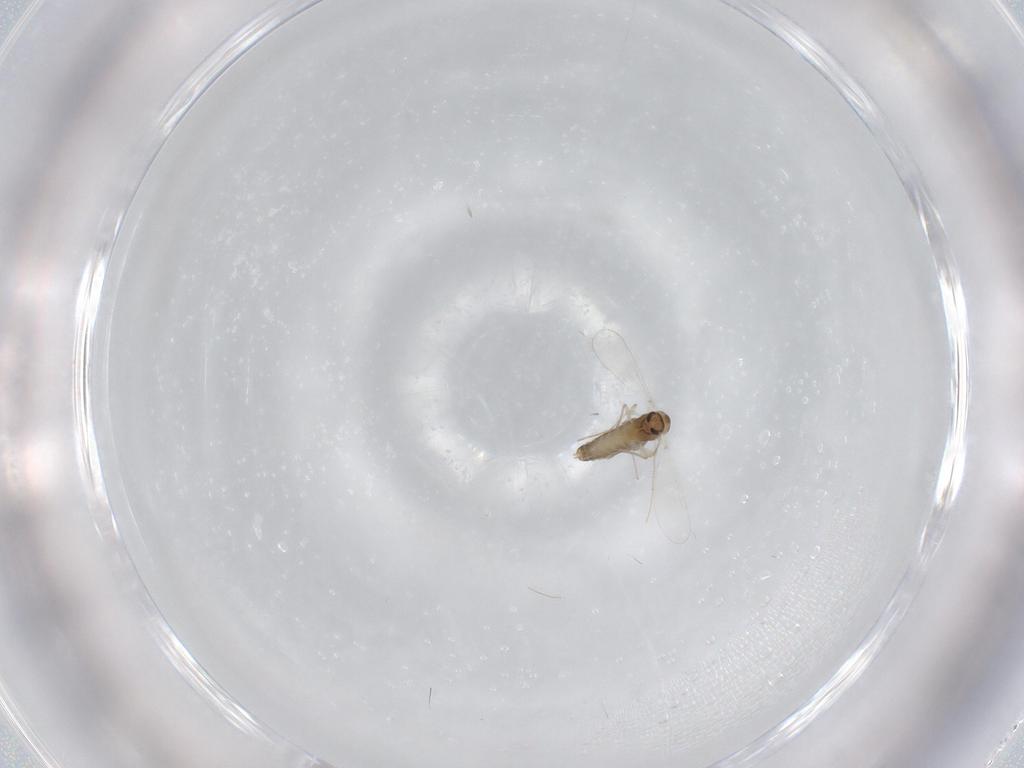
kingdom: Animalia
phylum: Arthropoda
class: Insecta
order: Diptera
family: Chironomidae
